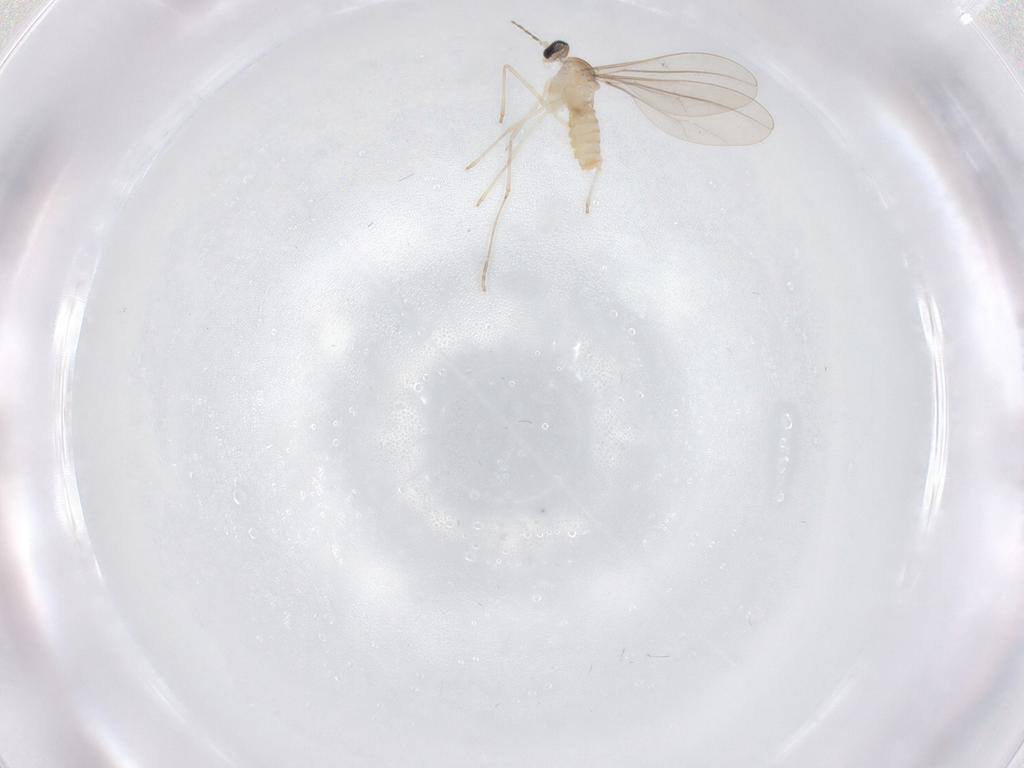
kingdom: Animalia
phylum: Arthropoda
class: Insecta
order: Diptera
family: Cecidomyiidae
